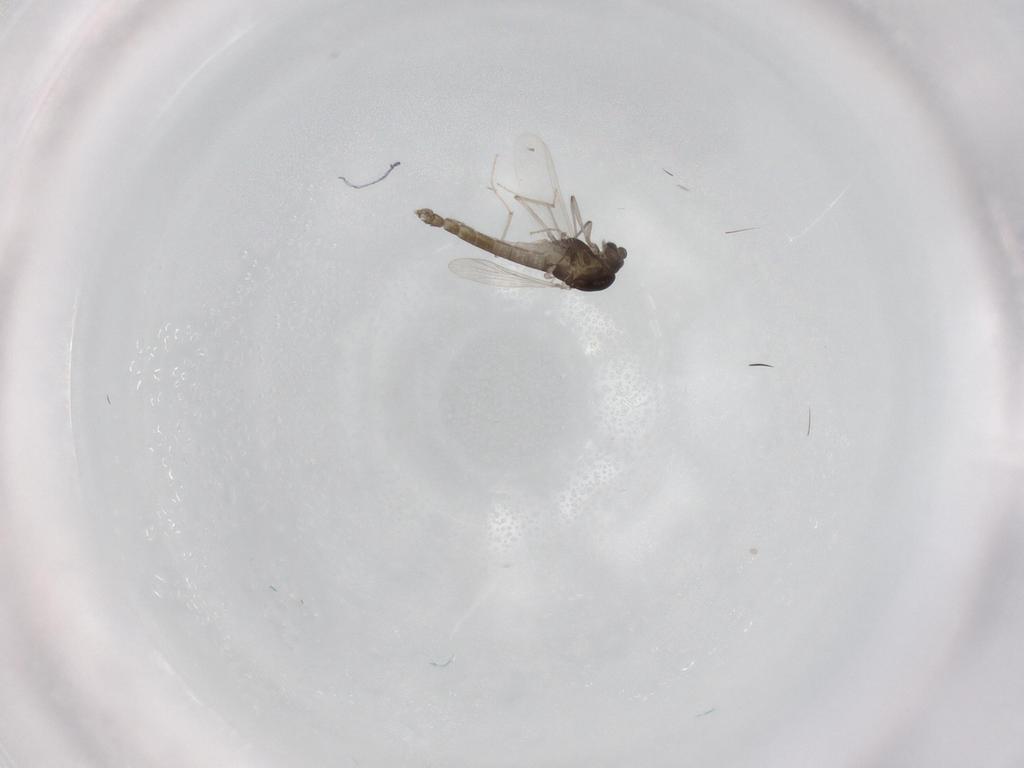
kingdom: Animalia
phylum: Arthropoda
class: Insecta
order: Diptera
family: Chironomidae
